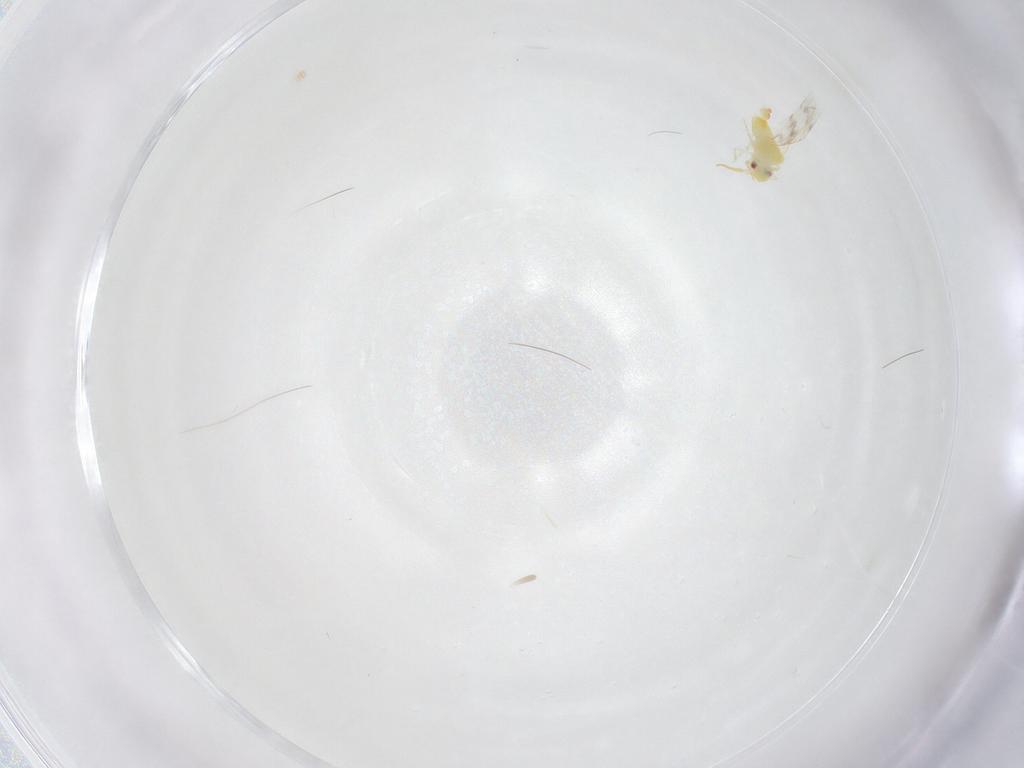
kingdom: Animalia
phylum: Arthropoda
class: Insecta
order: Hemiptera
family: Aleyrodidae
